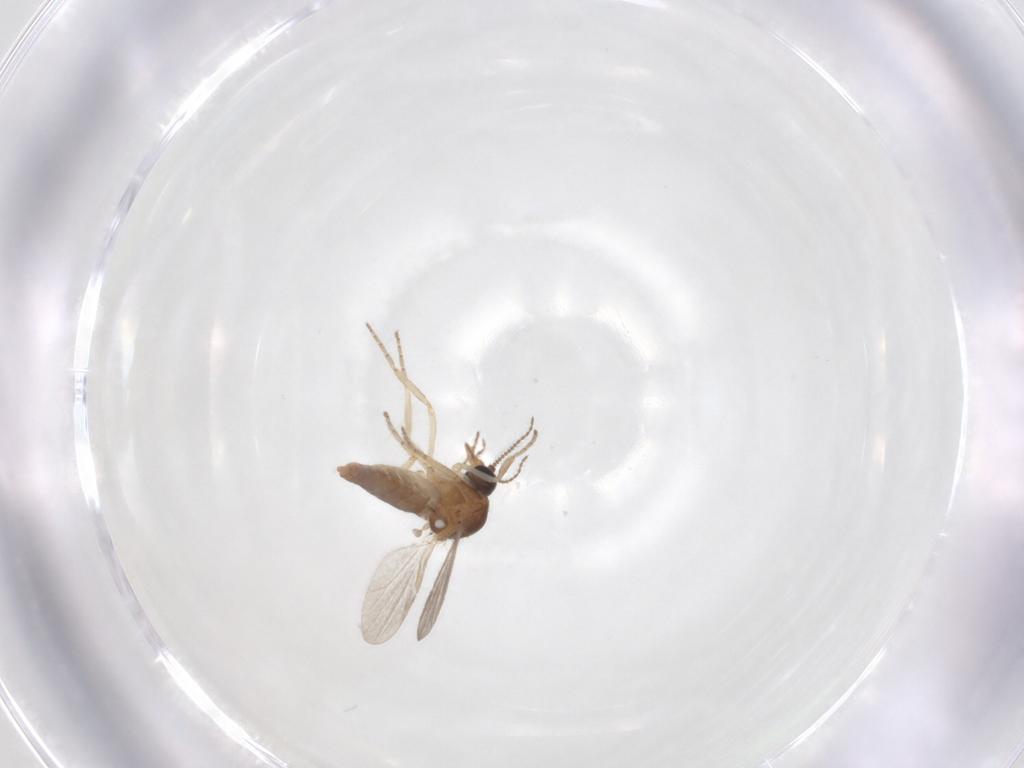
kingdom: Animalia
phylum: Arthropoda
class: Insecta
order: Diptera
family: Ceratopogonidae
